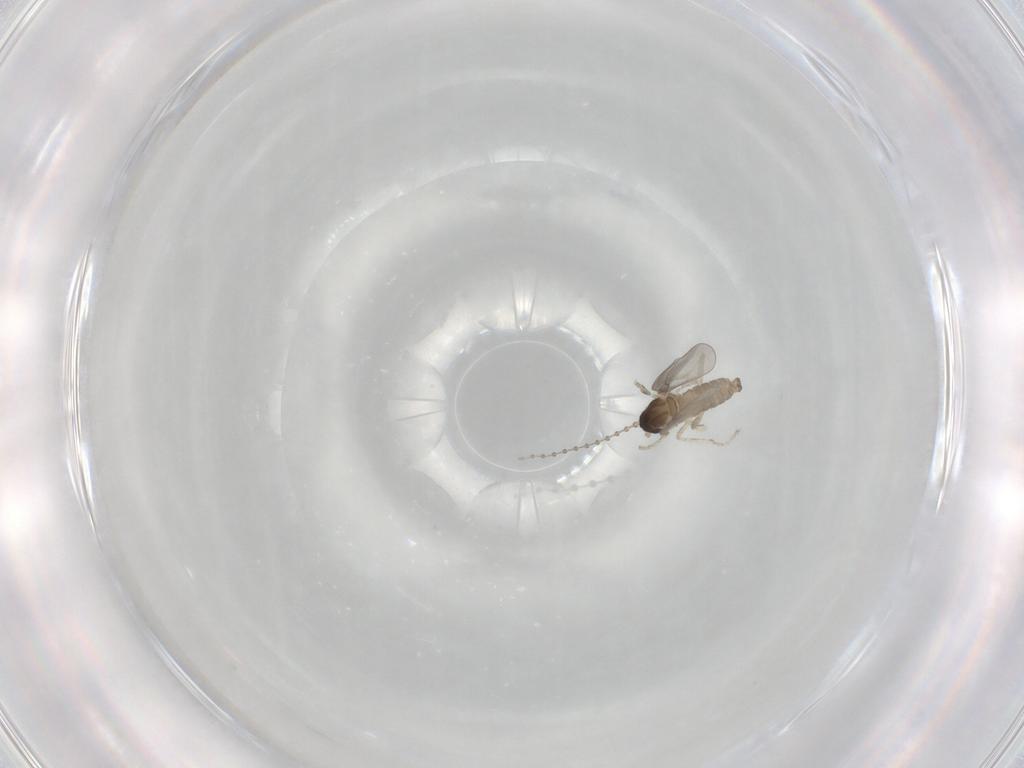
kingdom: Animalia
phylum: Arthropoda
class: Insecta
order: Diptera
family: Cecidomyiidae
